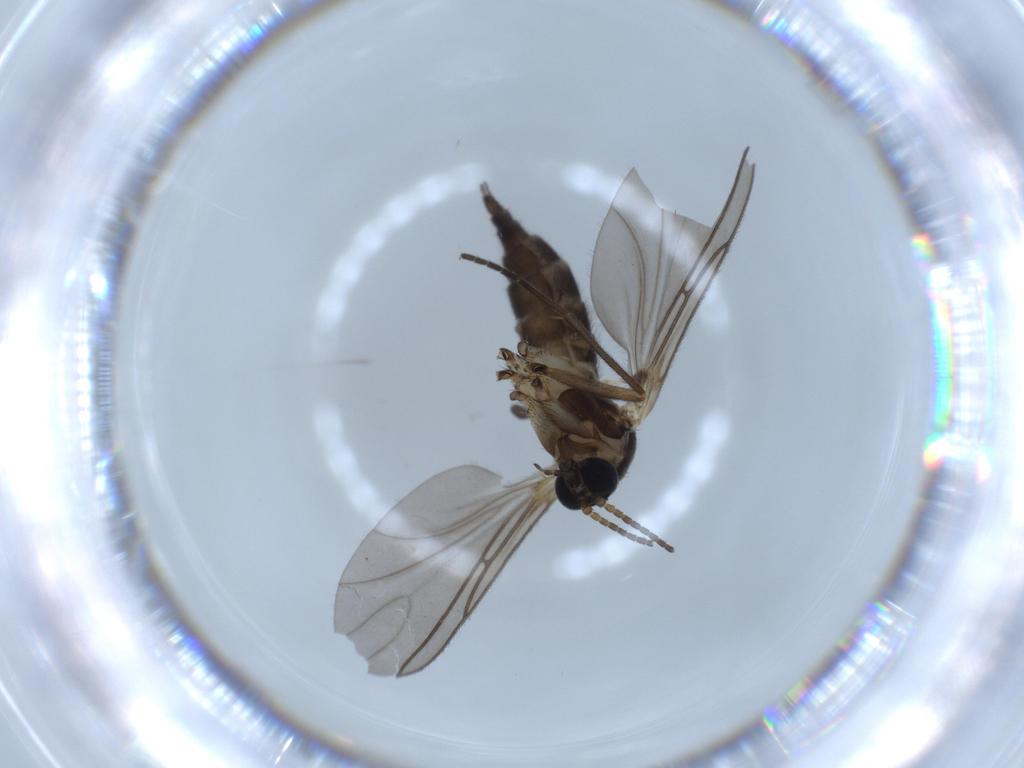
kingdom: Animalia
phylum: Arthropoda
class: Insecta
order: Diptera
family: Sciaridae
